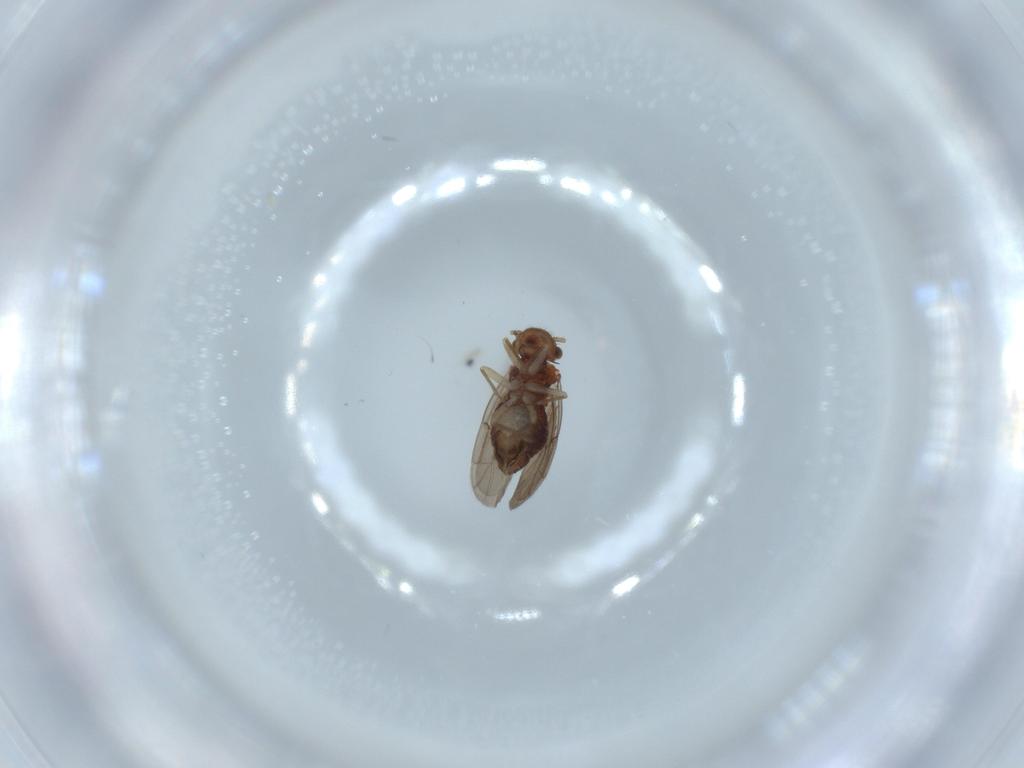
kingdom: Animalia
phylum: Arthropoda
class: Insecta
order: Psocodea
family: Ectopsocidae
